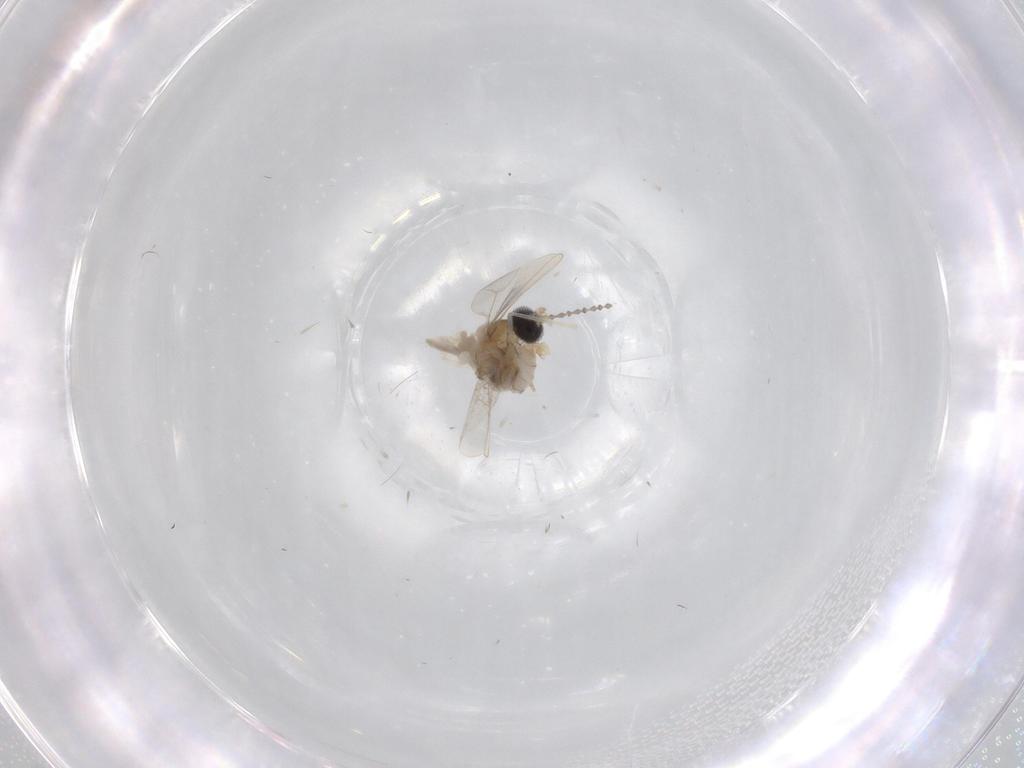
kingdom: Animalia
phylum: Arthropoda
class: Insecta
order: Diptera
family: Cecidomyiidae
